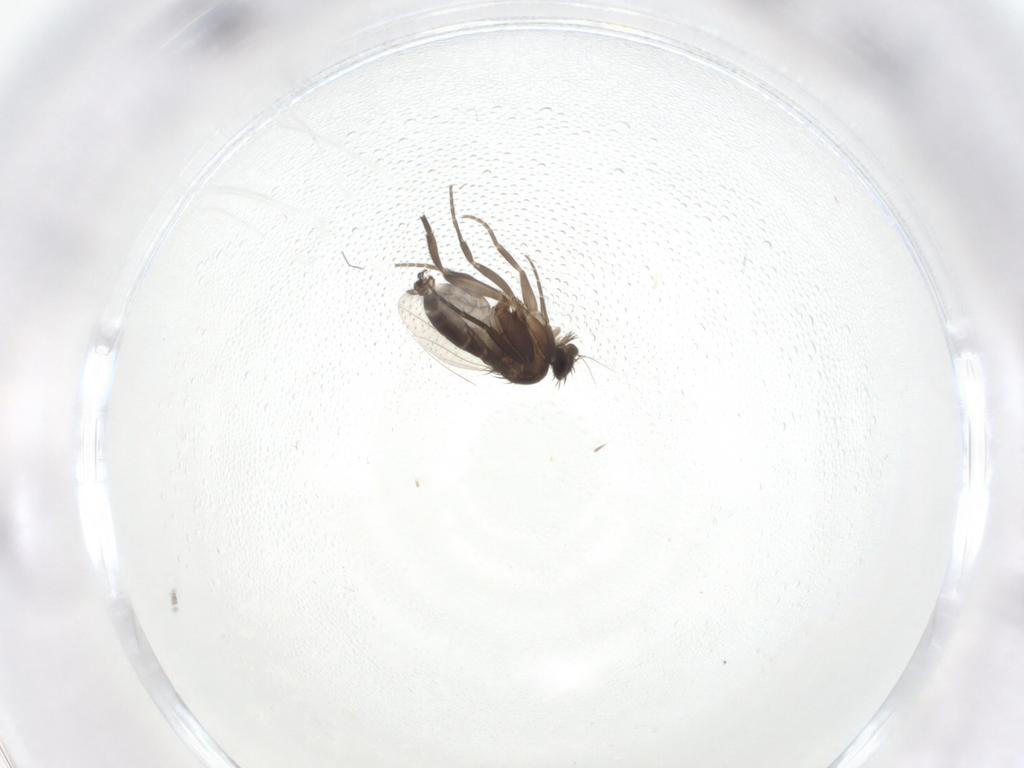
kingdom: Animalia
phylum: Arthropoda
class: Insecta
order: Diptera
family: Phoridae
